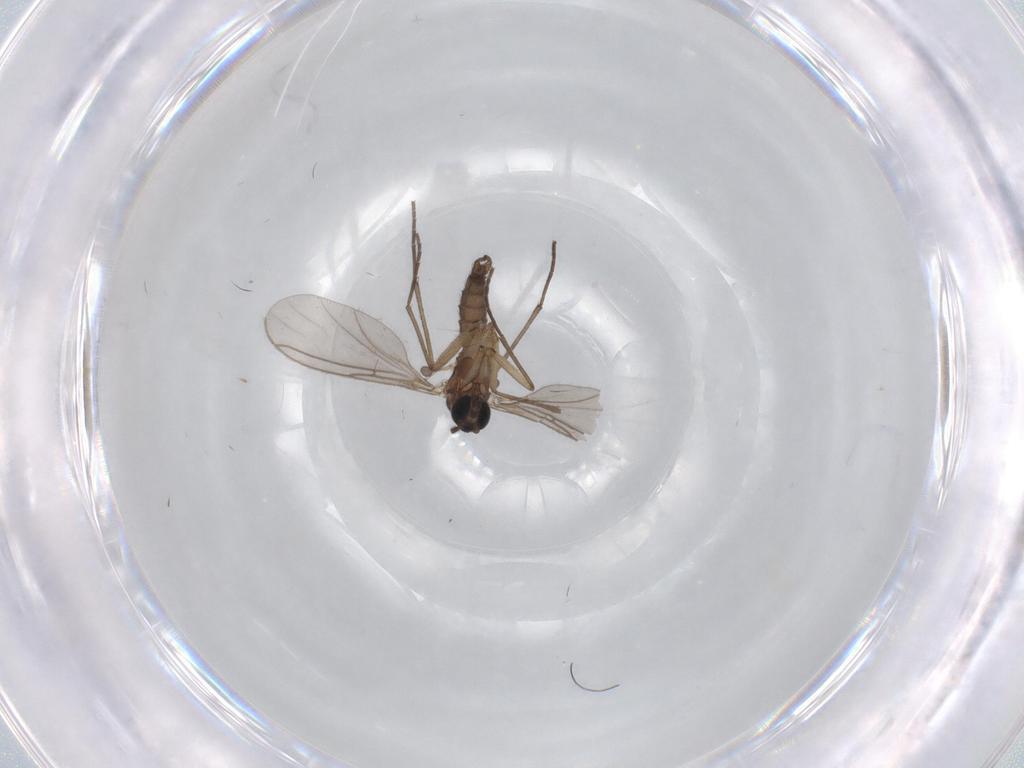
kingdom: Animalia
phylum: Arthropoda
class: Insecta
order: Diptera
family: Sciaridae
